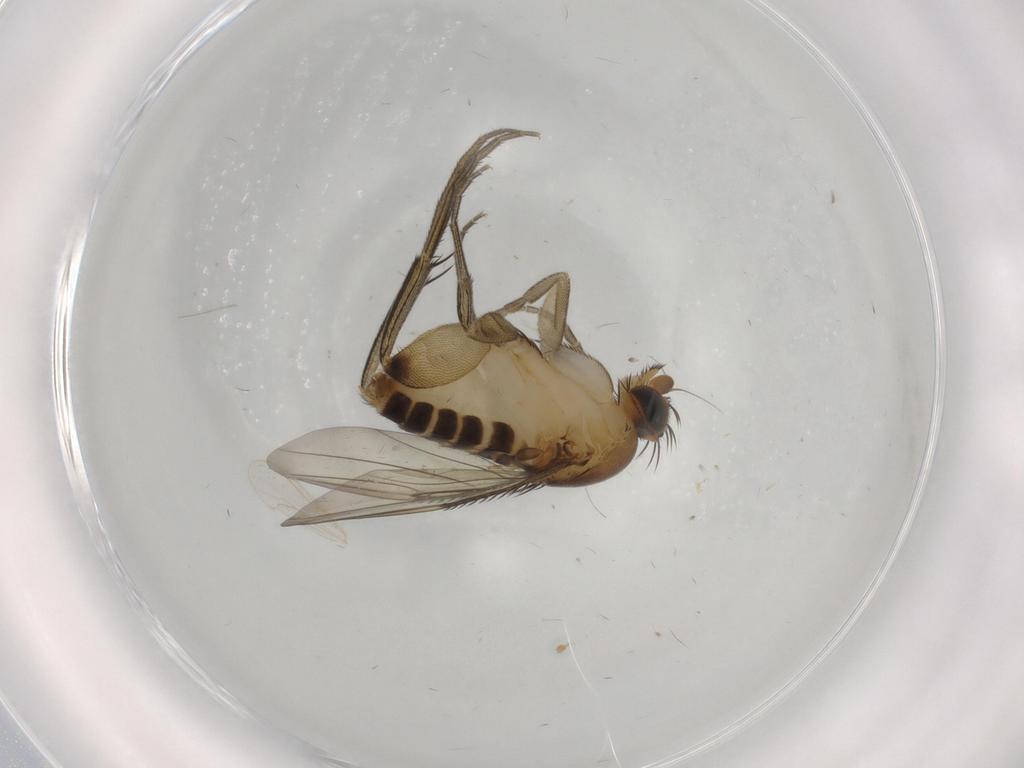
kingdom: Animalia
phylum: Arthropoda
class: Insecta
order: Diptera
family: Phoridae
